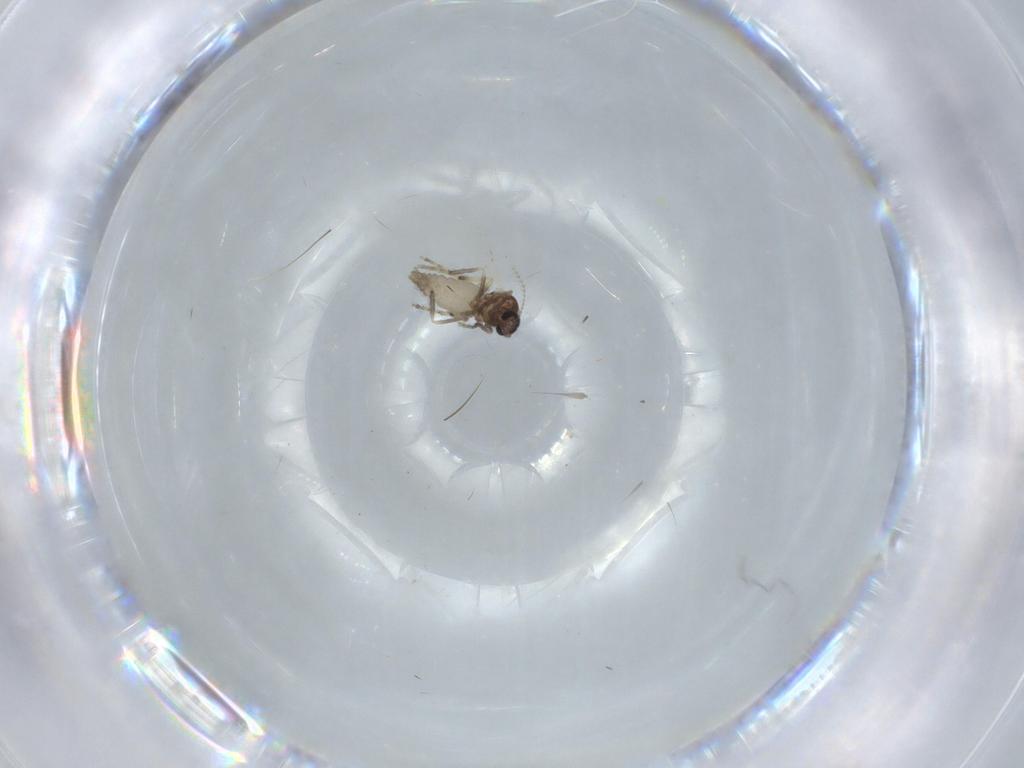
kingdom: Animalia
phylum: Arthropoda
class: Insecta
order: Diptera
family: Ceratopogonidae
